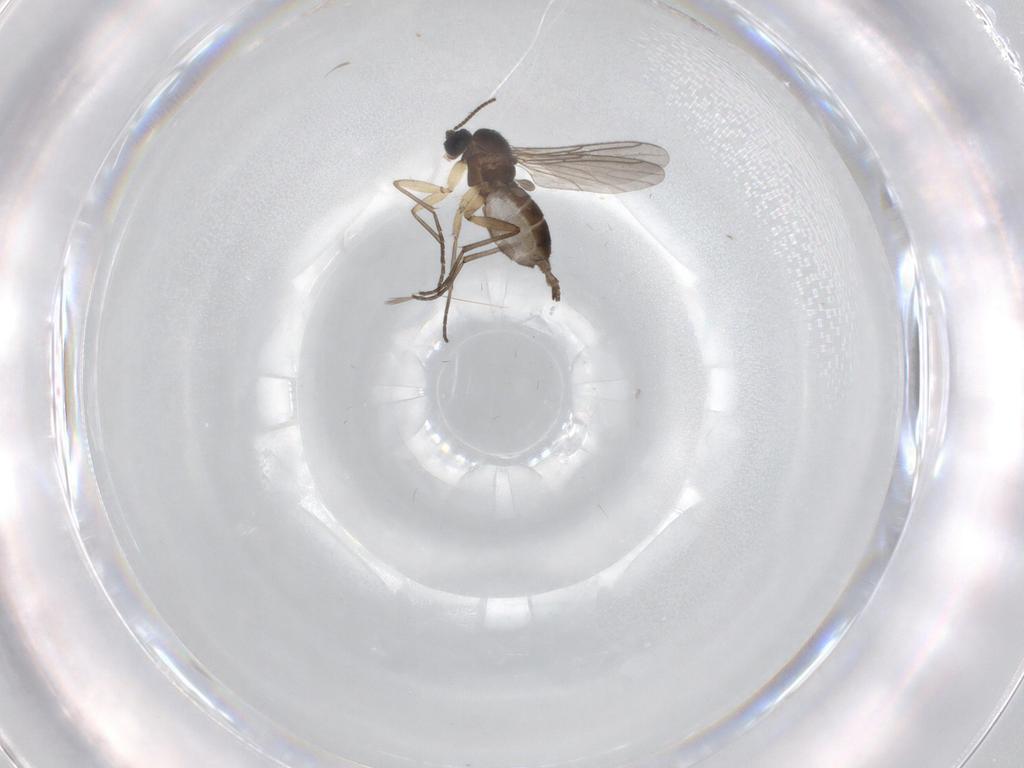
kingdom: Animalia
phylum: Arthropoda
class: Insecta
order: Diptera
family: Sciaridae
